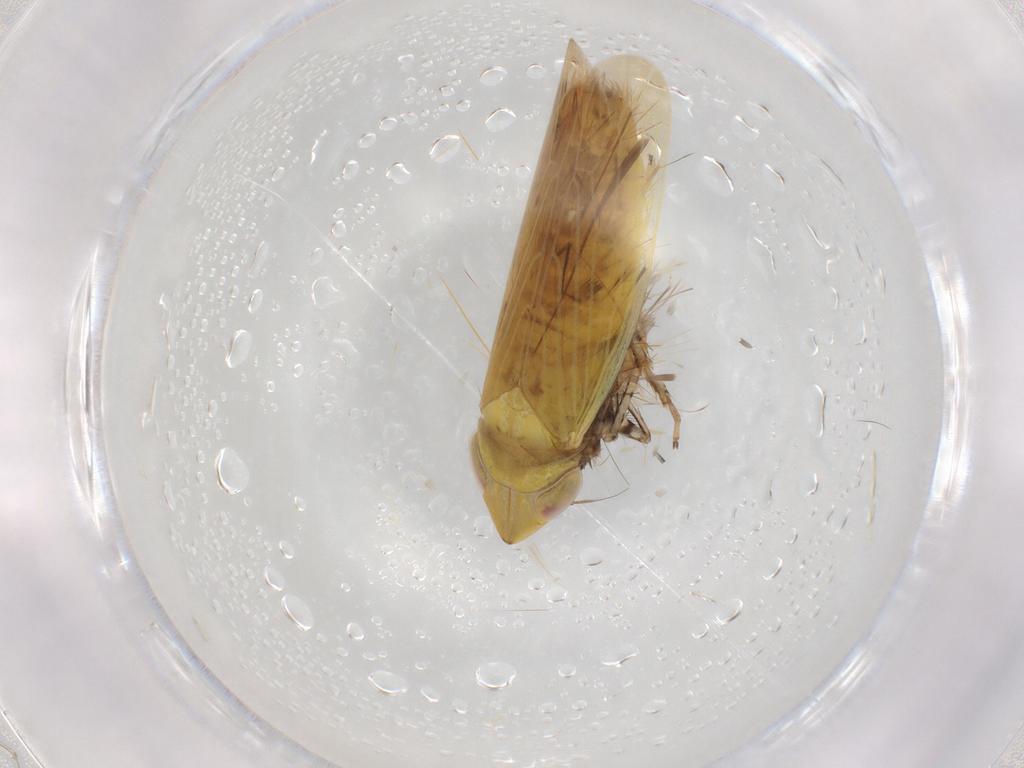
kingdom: Animalia
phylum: Arthropoda
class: Insecta
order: Hemiptera
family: Cicadellidae
